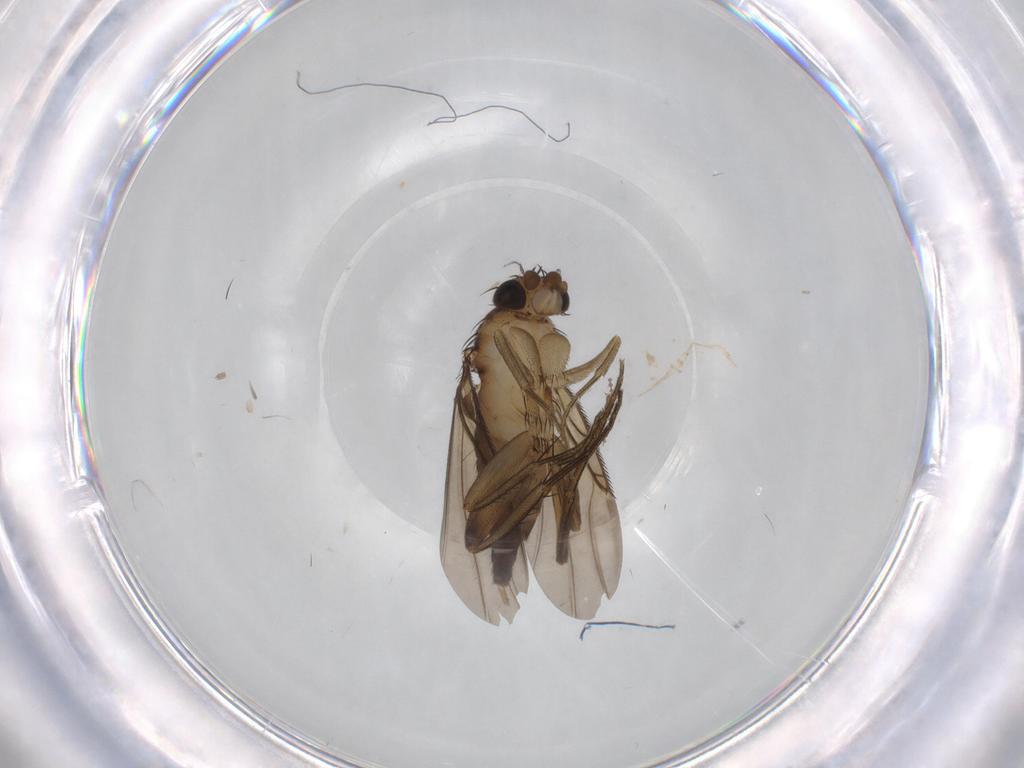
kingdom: Animalia
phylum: Arthropoda
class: Insecta
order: Diptera
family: Phoridae
